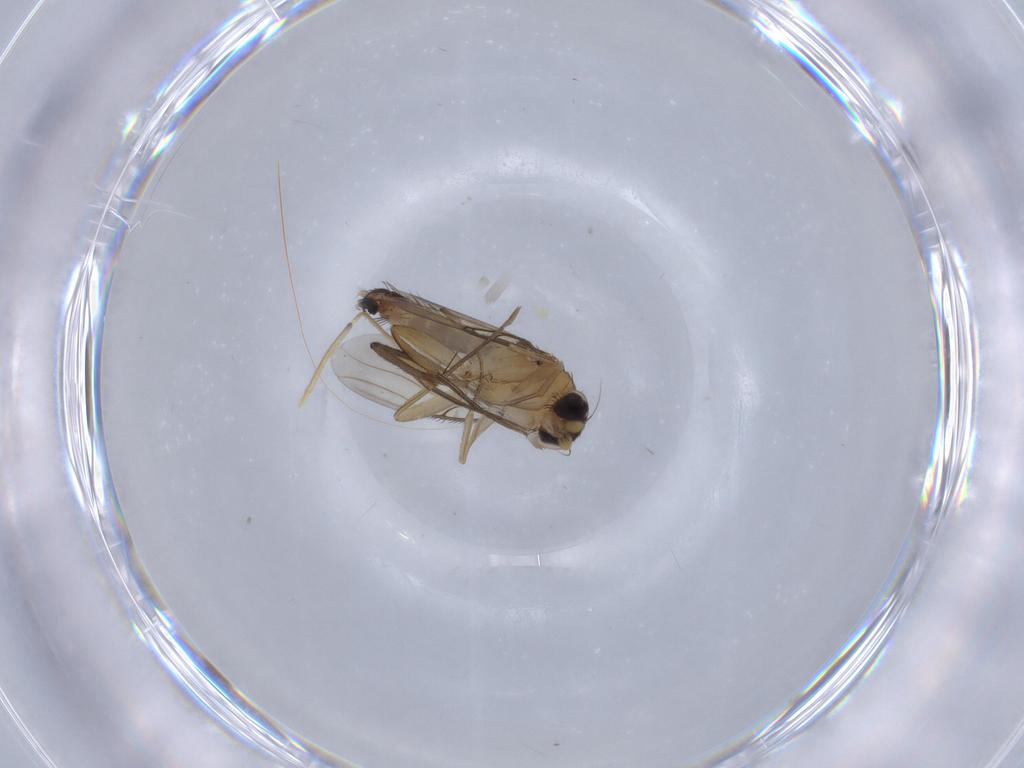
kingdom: Animalia
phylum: Arthropoda
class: Insecta
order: Diptera
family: Phoridae
